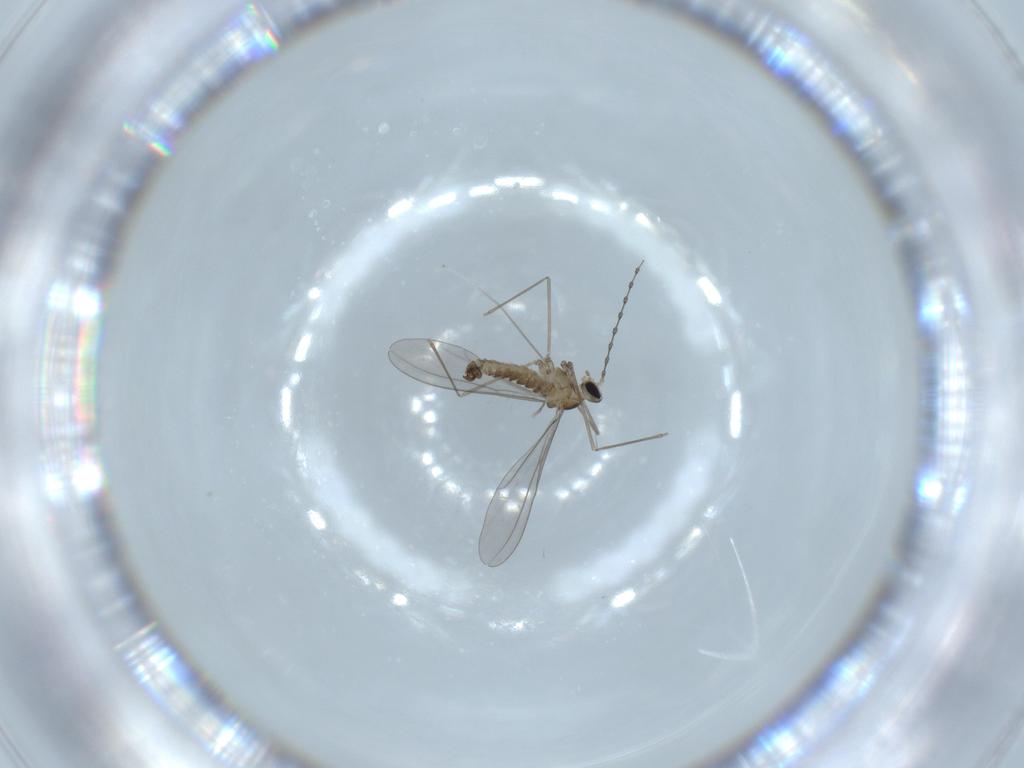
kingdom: Animalia
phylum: Arthropoda
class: Insecta
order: Diptera
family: Cecidomyiidae
